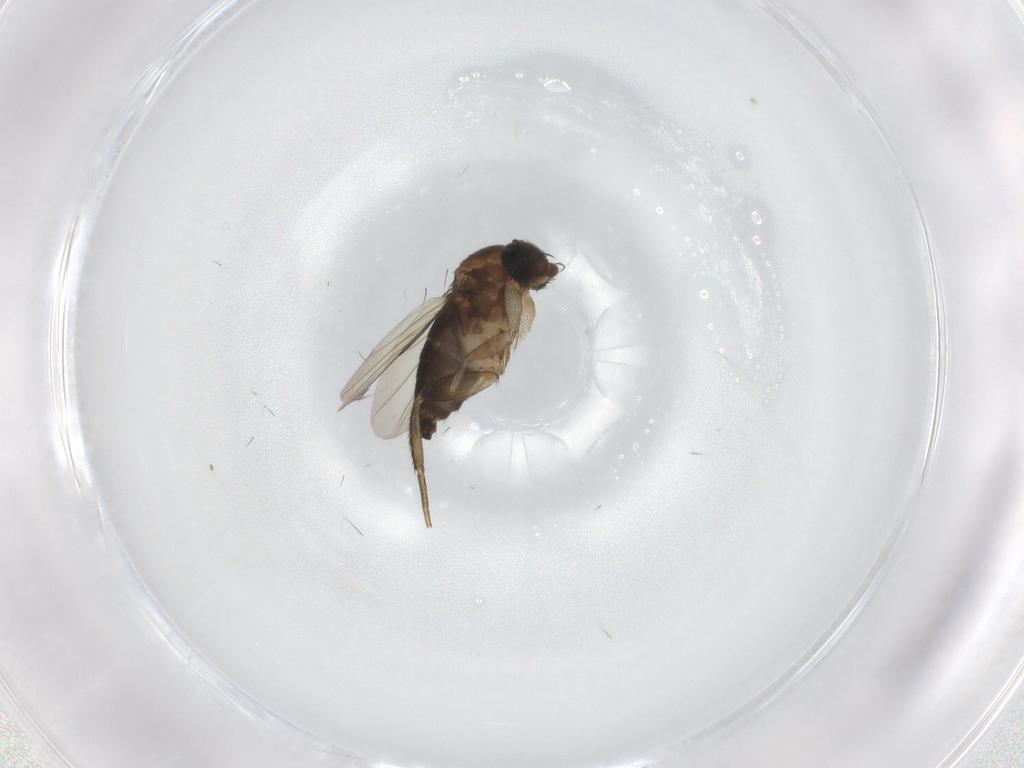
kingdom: Animalia
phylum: Arthropoda
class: Insecta
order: Diptera
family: Phoridae
